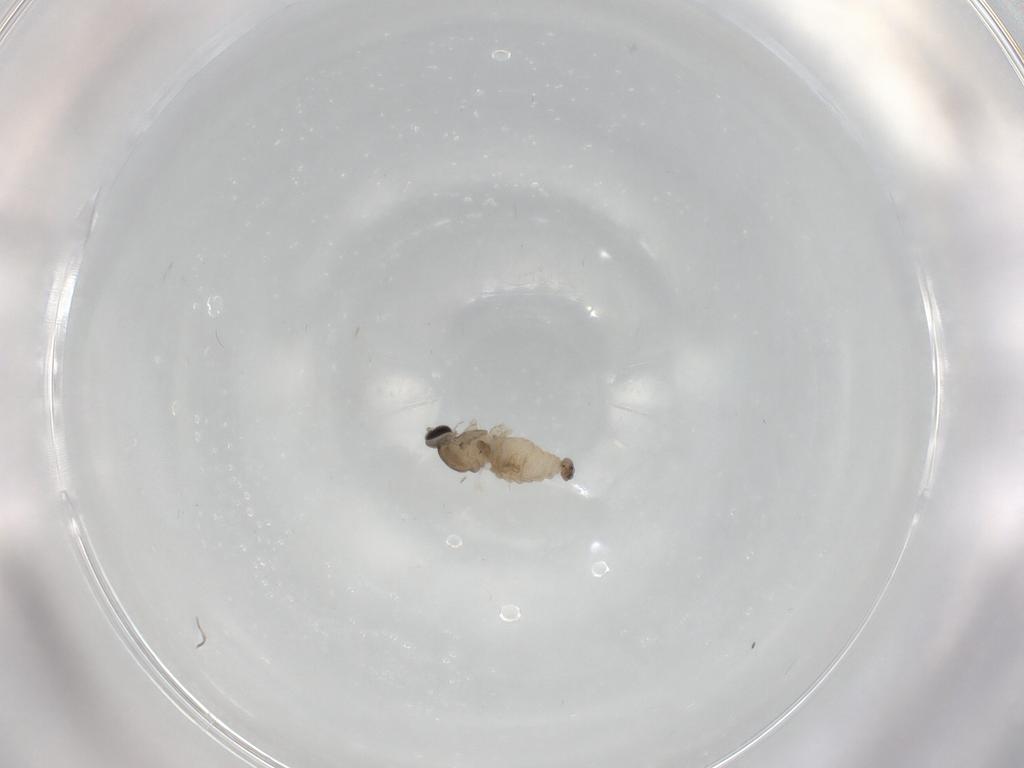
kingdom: Animalia
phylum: Arthropoda
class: Insecta
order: Diptera
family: Cecidomyiidae
